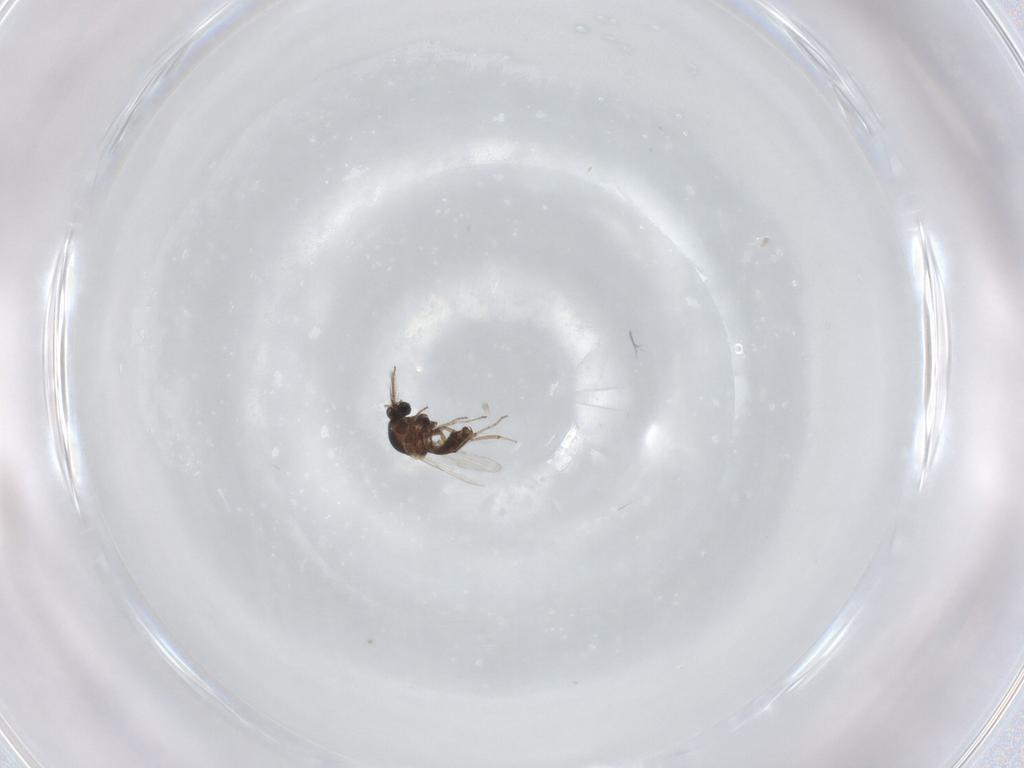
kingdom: Animalia
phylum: Arthropoda
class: Insecta
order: Diptera
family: Ceratopogonidae
